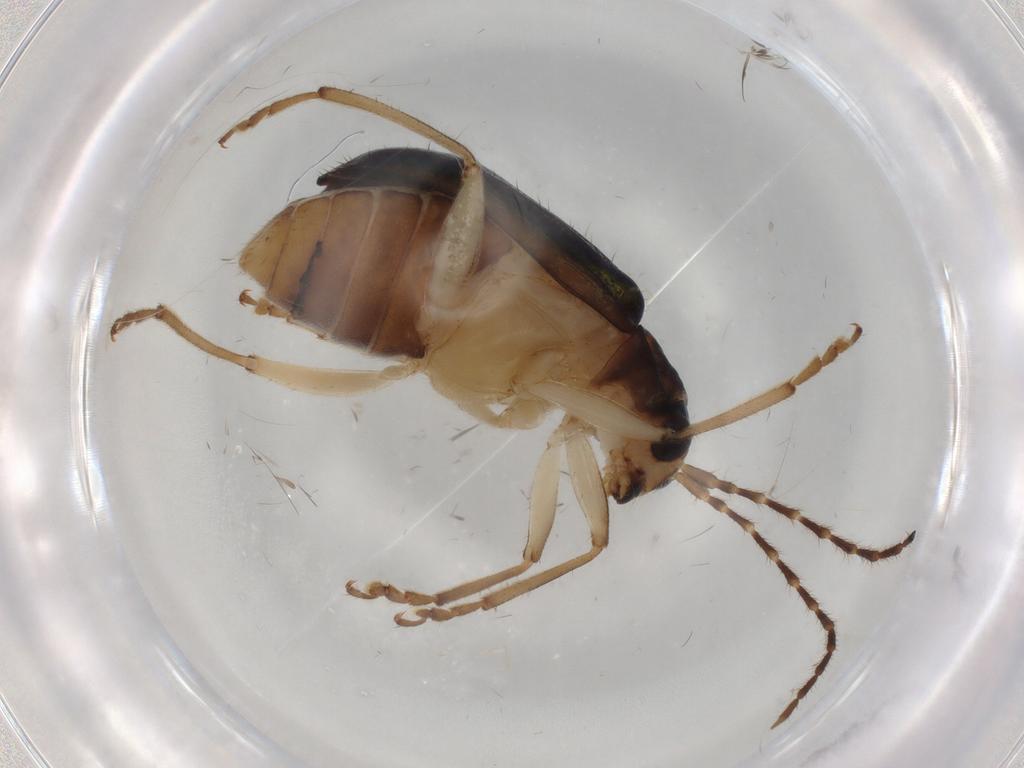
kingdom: Animalia
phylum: Arthropoda
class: Insecta
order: Coleoptera
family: Chrysomelidae
